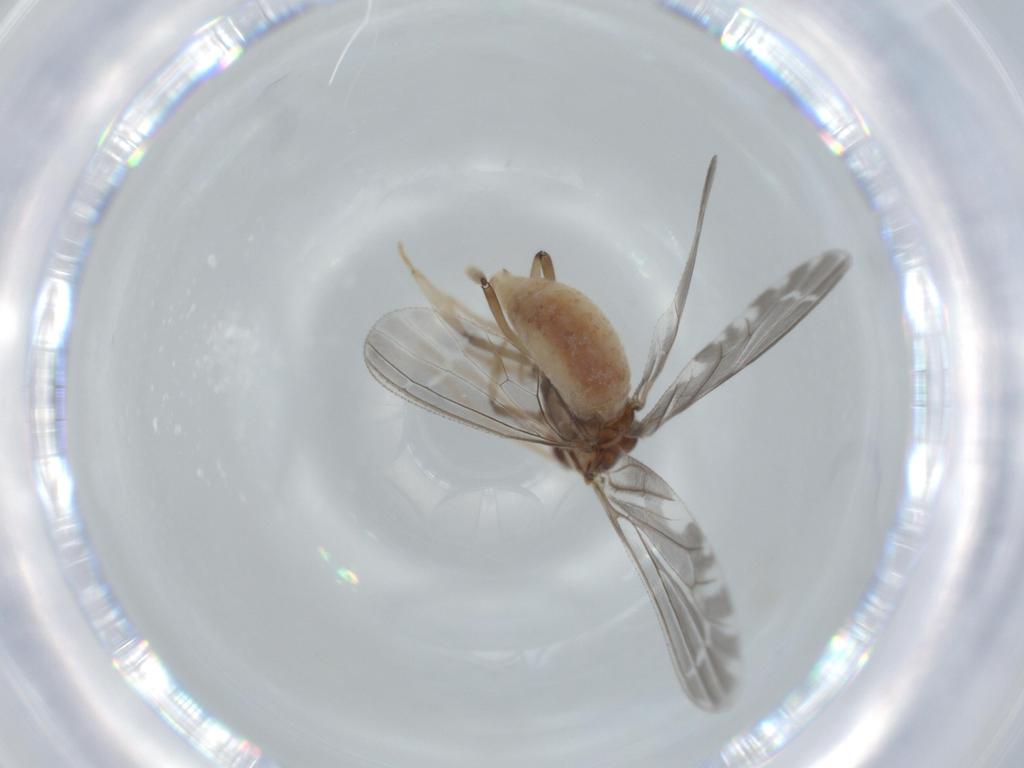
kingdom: Animalia
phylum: Arthropoda
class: Insecta
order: Neuroptera
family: Coniopterygidae
